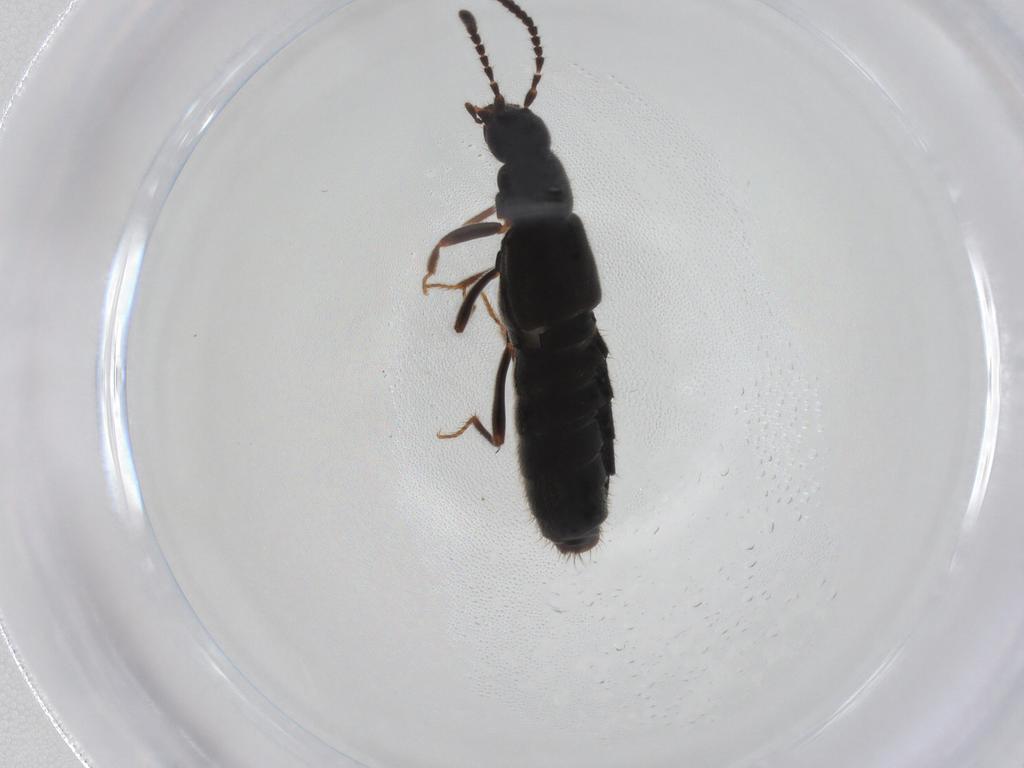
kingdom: Animalia
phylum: Arthropoda
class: Insecta
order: Coleoptera
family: Staphylinidae
